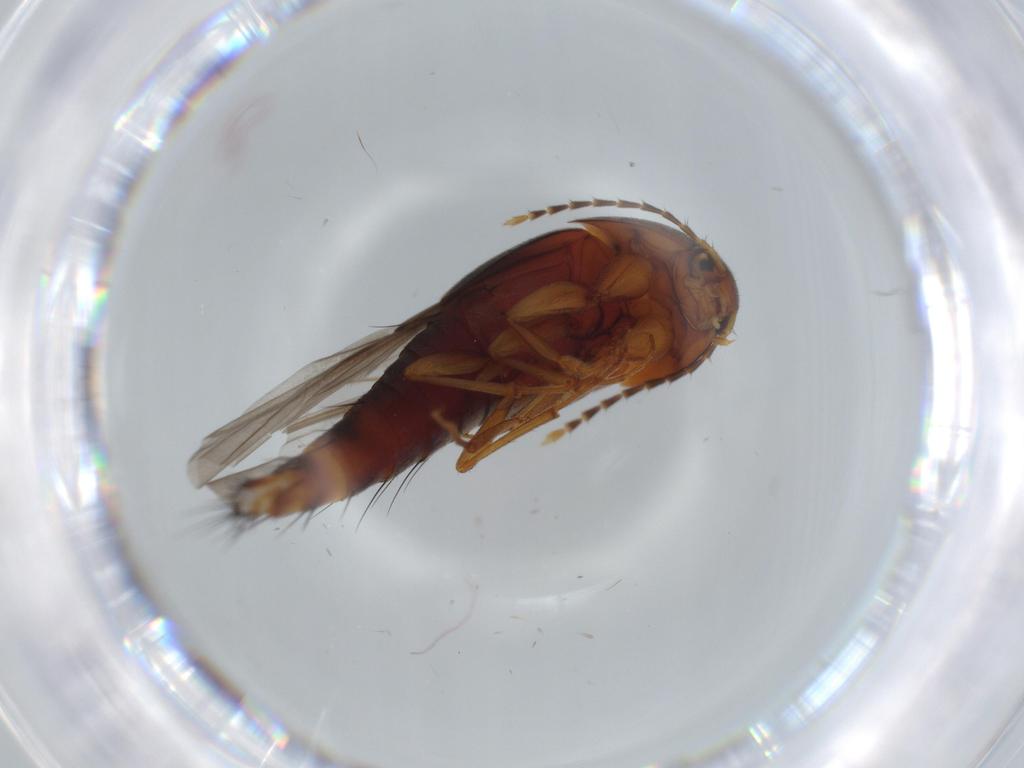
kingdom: Animalia
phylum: Arthropoda
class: Insecta
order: Coleoptera
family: Staphylinidae
